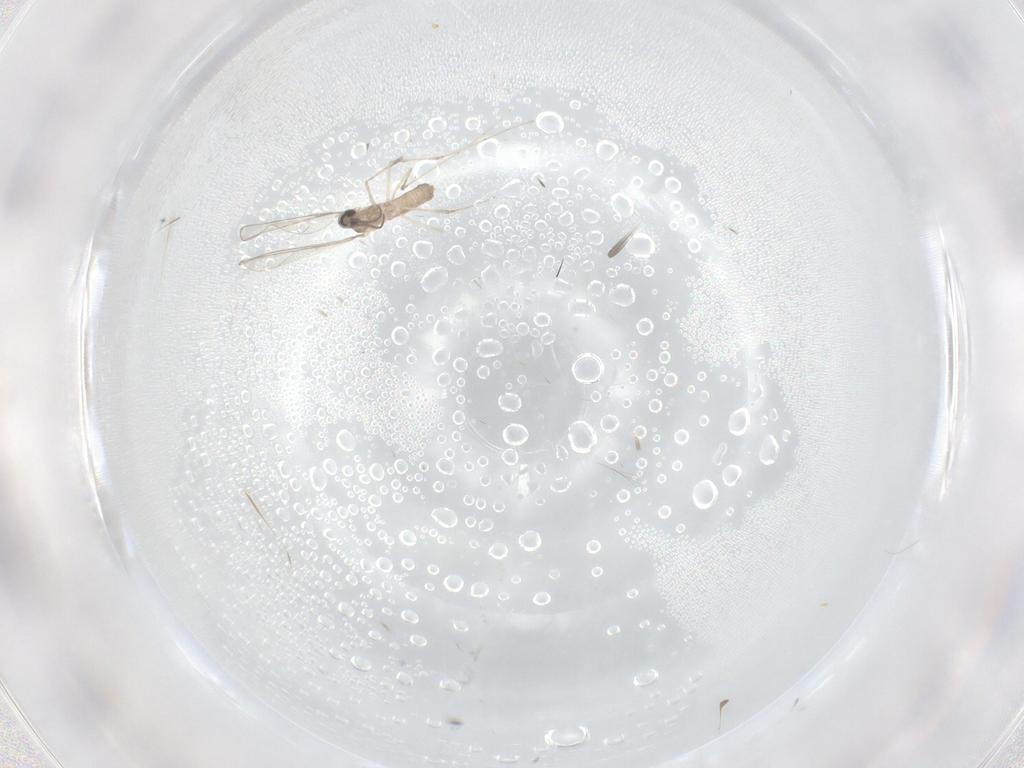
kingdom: Animalia
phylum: Arthropoda
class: Insecta
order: Diptera
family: Cecidomyiidae
